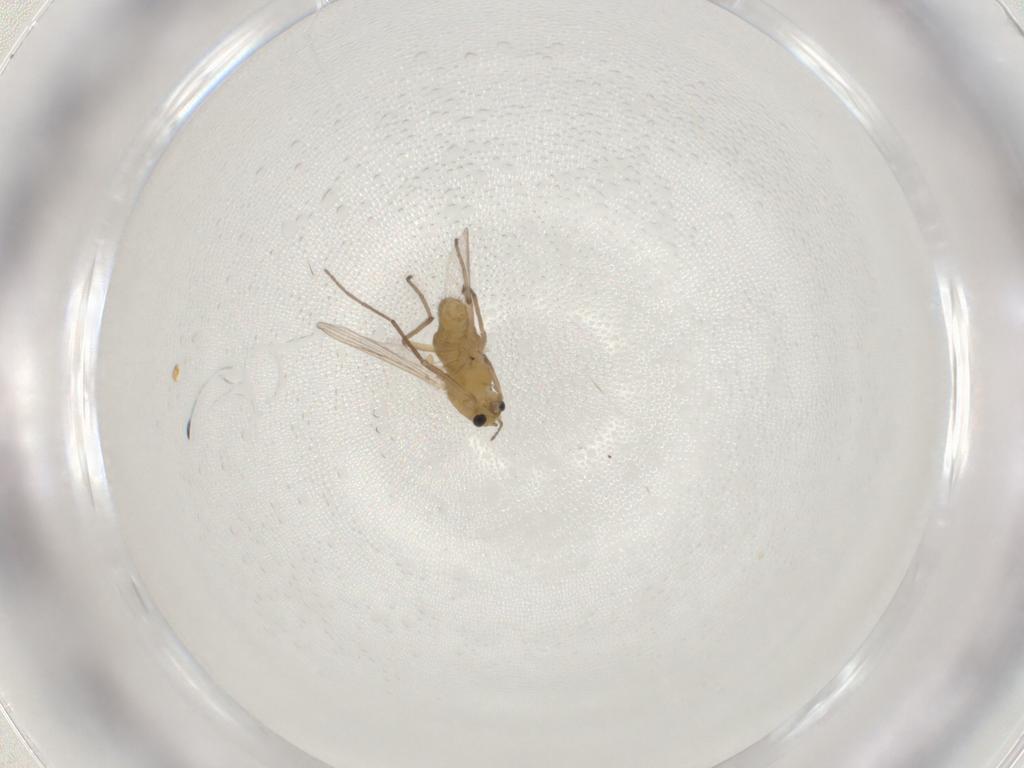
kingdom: Animalia
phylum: Arthropoda
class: Insecta
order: Diptera
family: Chironomidae
